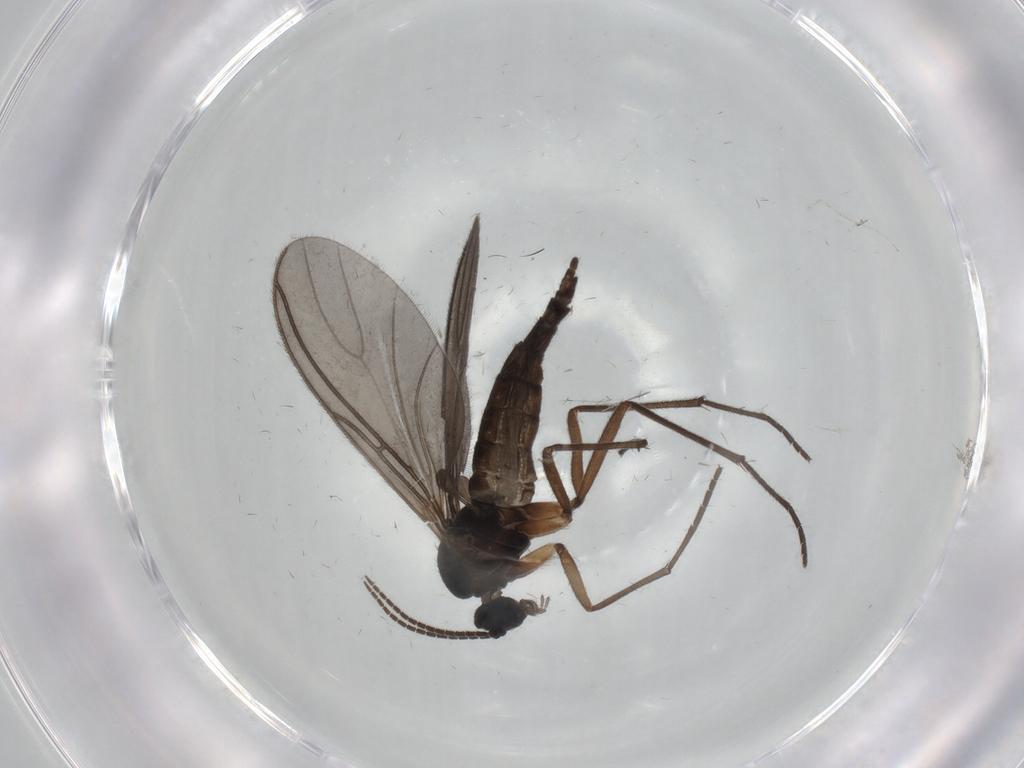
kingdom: Animalia
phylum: Arthropoda
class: Insecta
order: Diptera
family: Sciaridae
